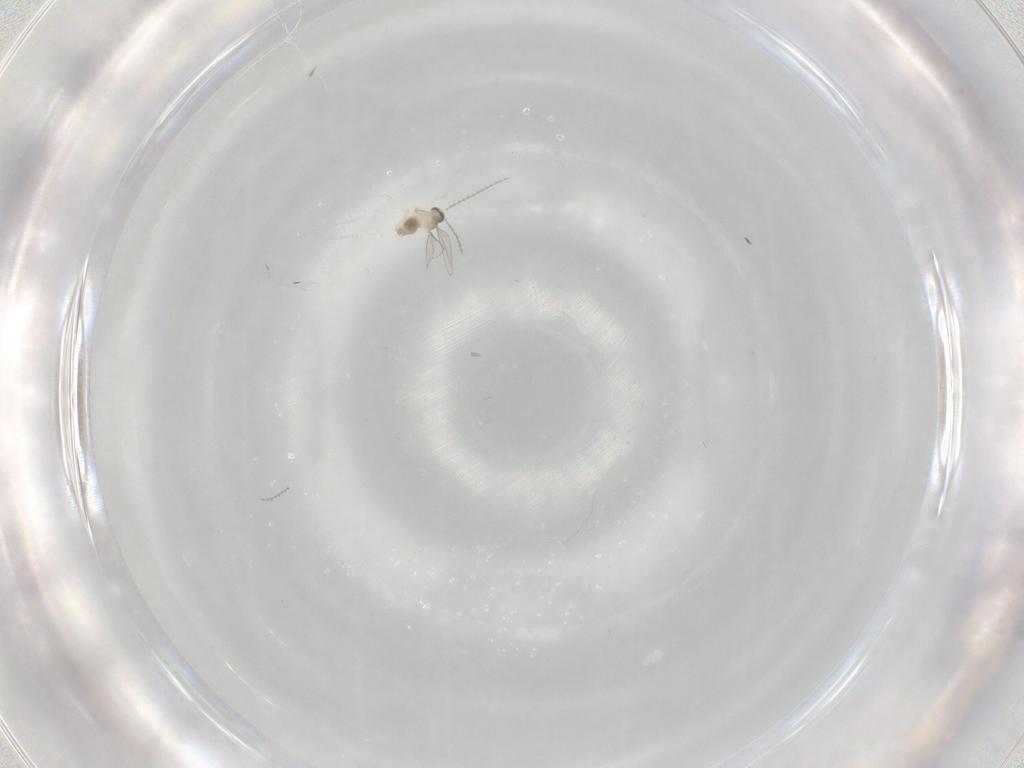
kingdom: Animalia
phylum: Arthropoda
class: Insecta
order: Diptera
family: Cecidomyiidae
